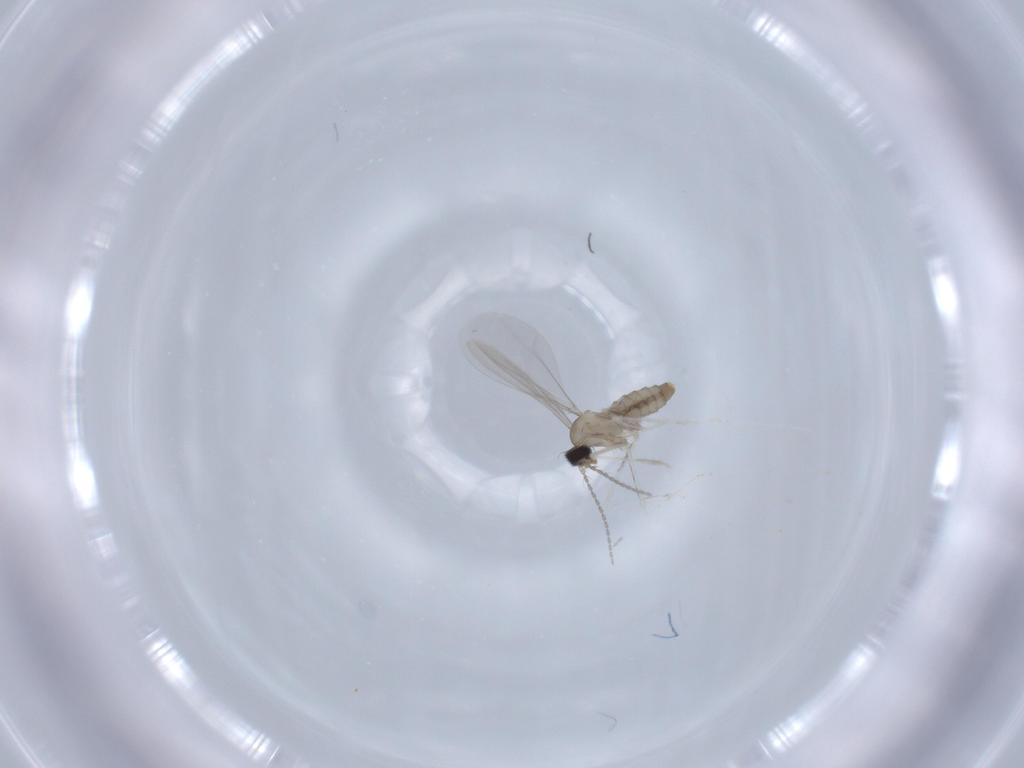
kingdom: Animalia
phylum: Arthropoda
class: Insecta
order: Diptera
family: Cecidomyiidae
